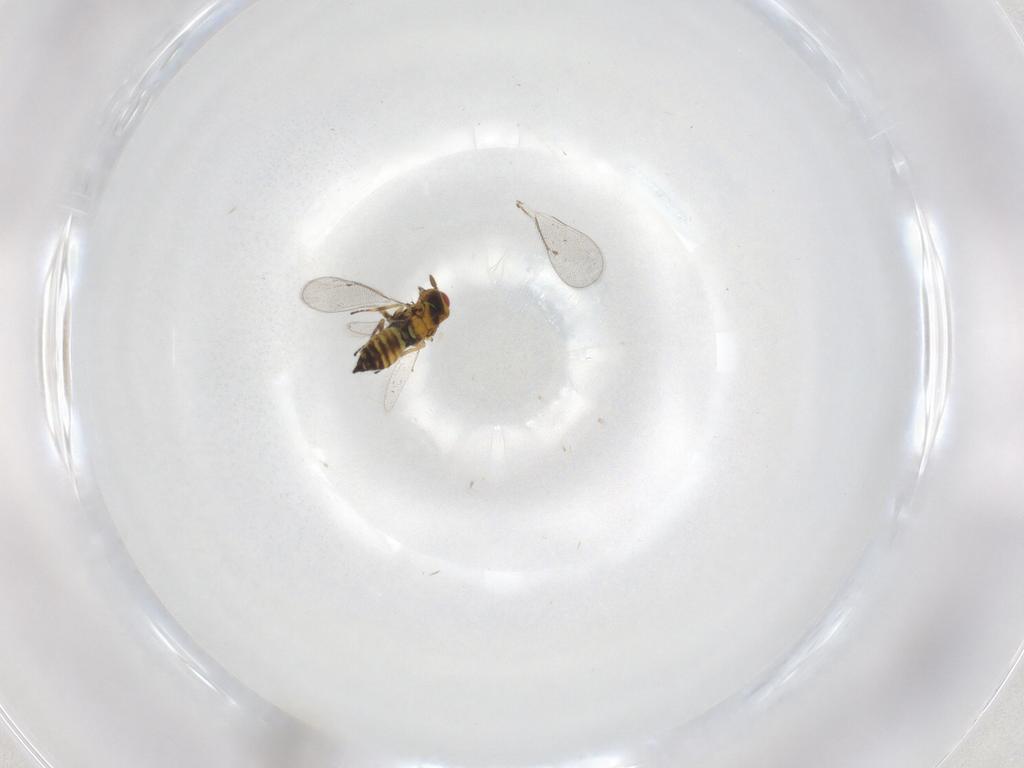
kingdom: Animalia
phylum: Arthropoda
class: Insecta
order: Hymenoptera
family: Eulophidae
